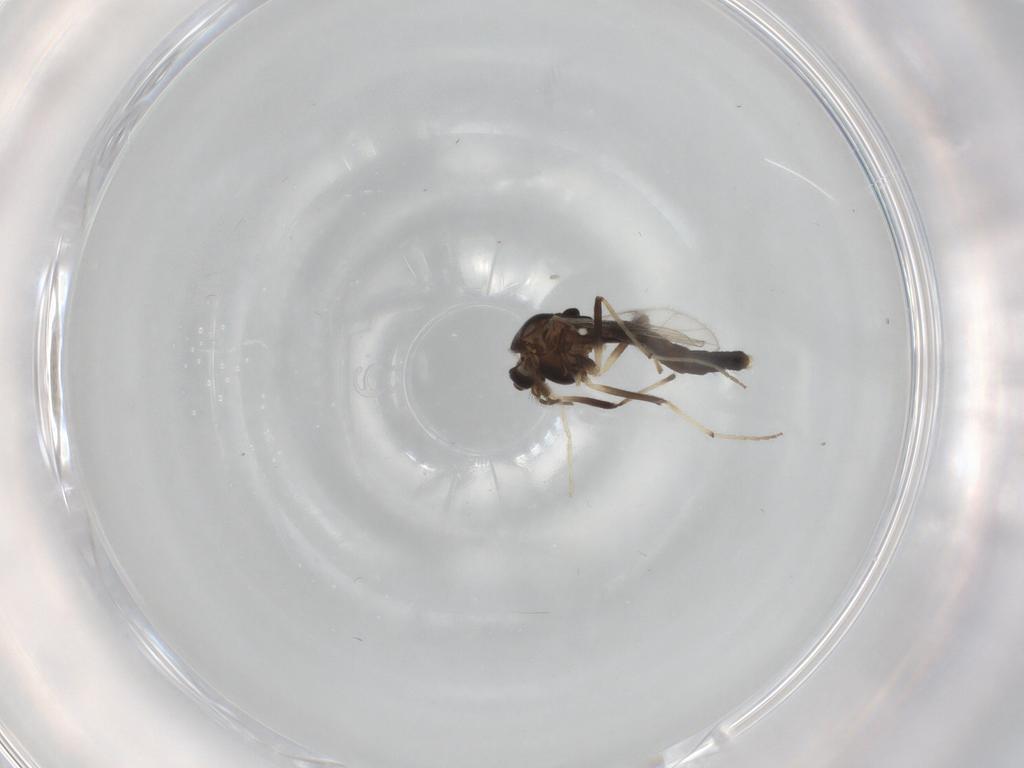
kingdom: Animalia
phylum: Arthropoda
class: Insecta
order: Diptera
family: Chironomidae
